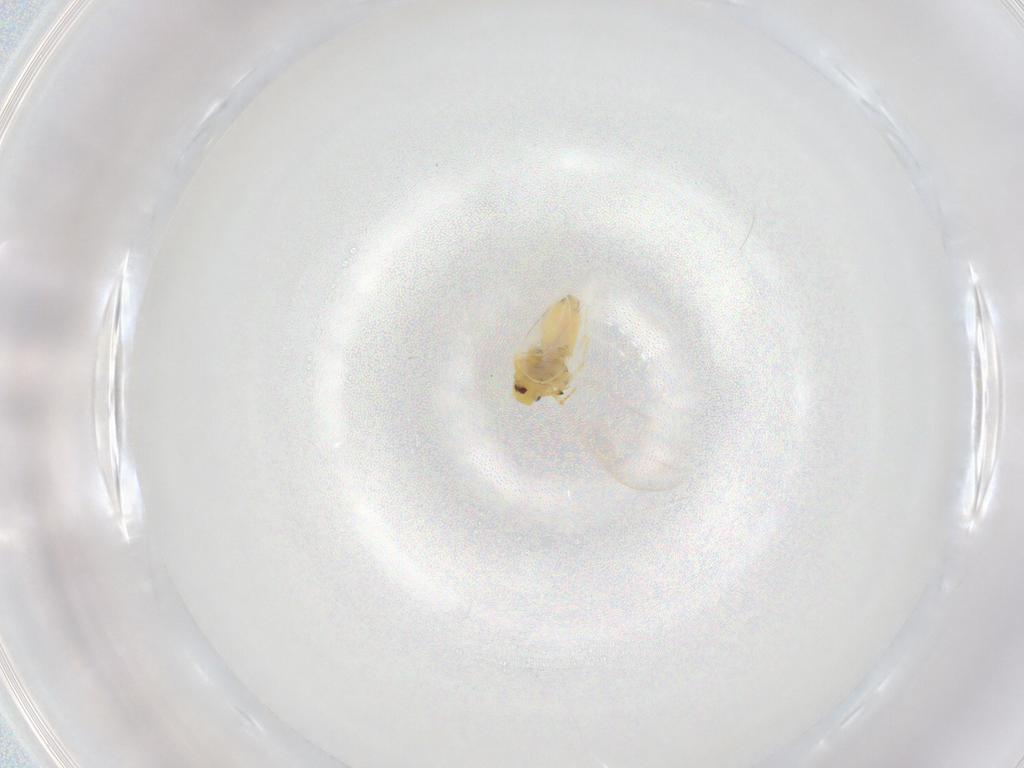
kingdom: Animalia
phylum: Arthropoda
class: Insecta
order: Hemiptera
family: Aleyrodidae
